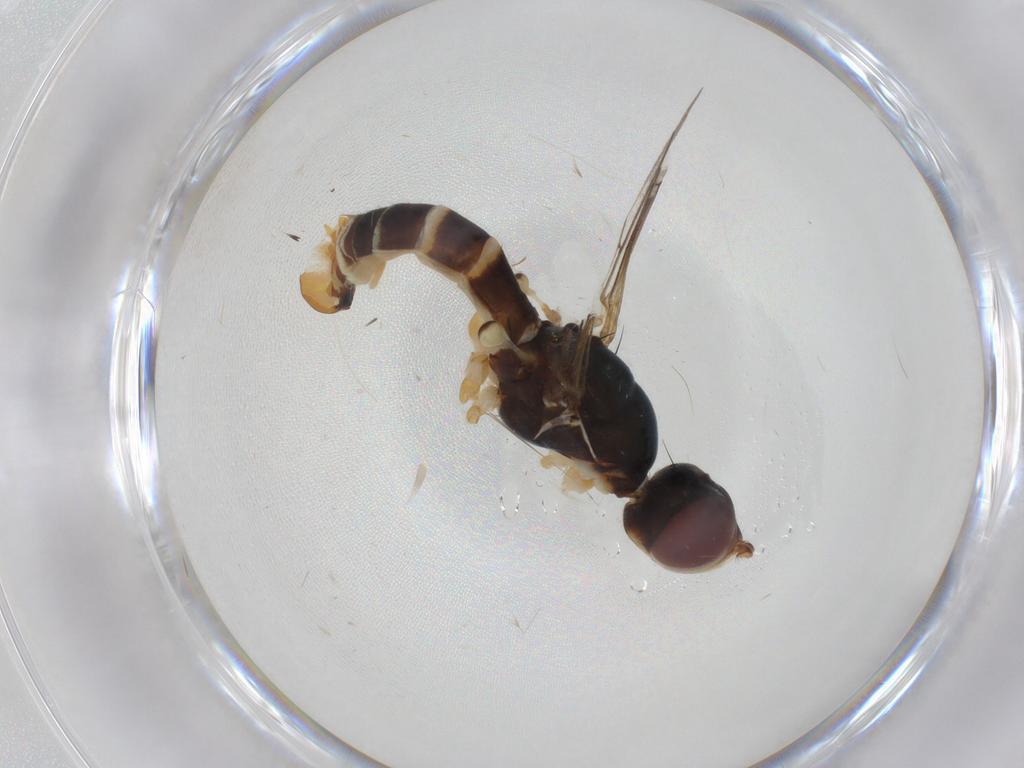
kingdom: Animalia
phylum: Arthropoda
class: Insecta
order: Diptera
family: Micropezidae
